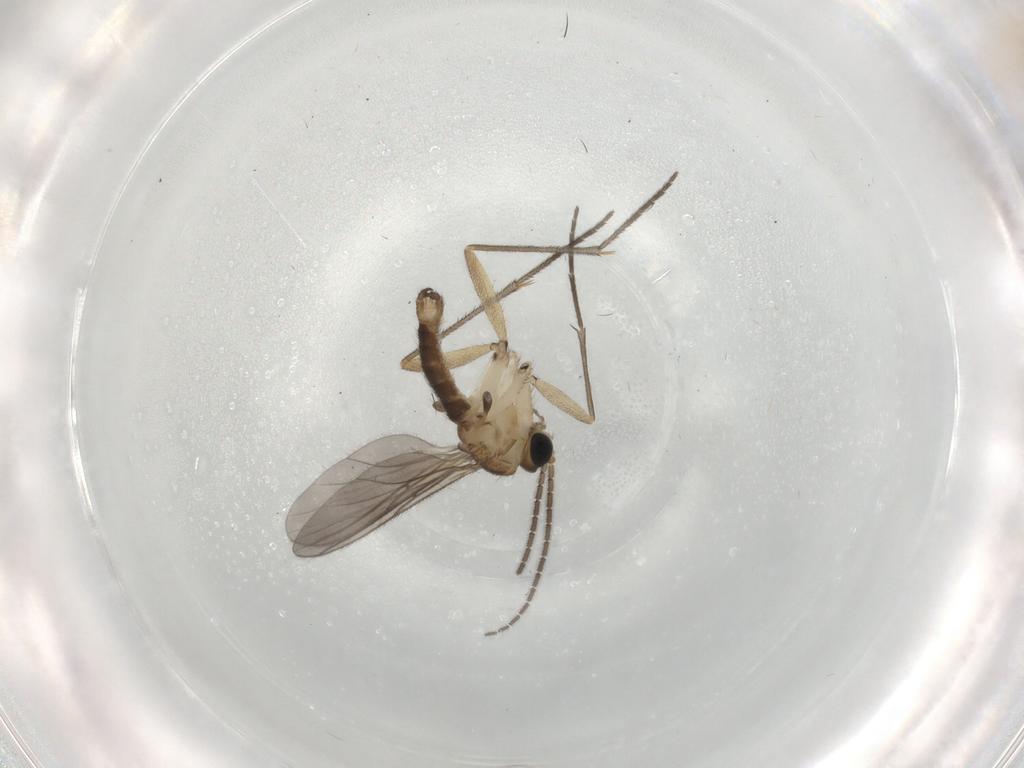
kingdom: Animalia
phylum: Arthropoda
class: Insecta
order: Diptera
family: Sciaridae
